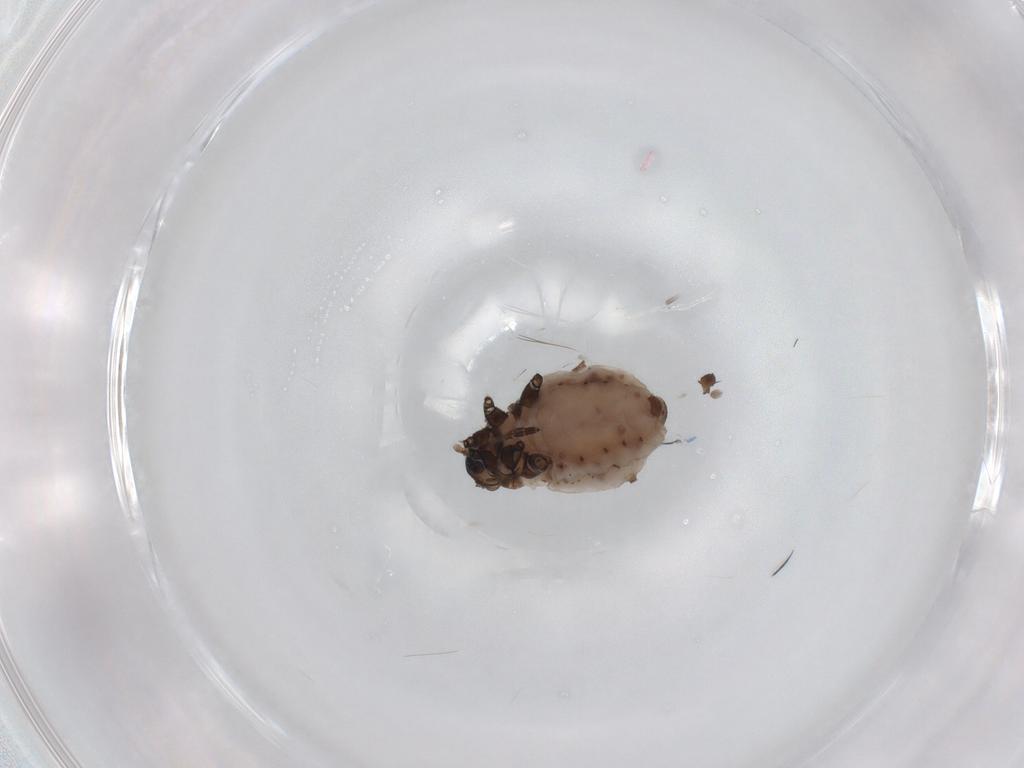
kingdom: Animalia
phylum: Arthropoda
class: Insecta
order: Hemiptera
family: Aphididae
